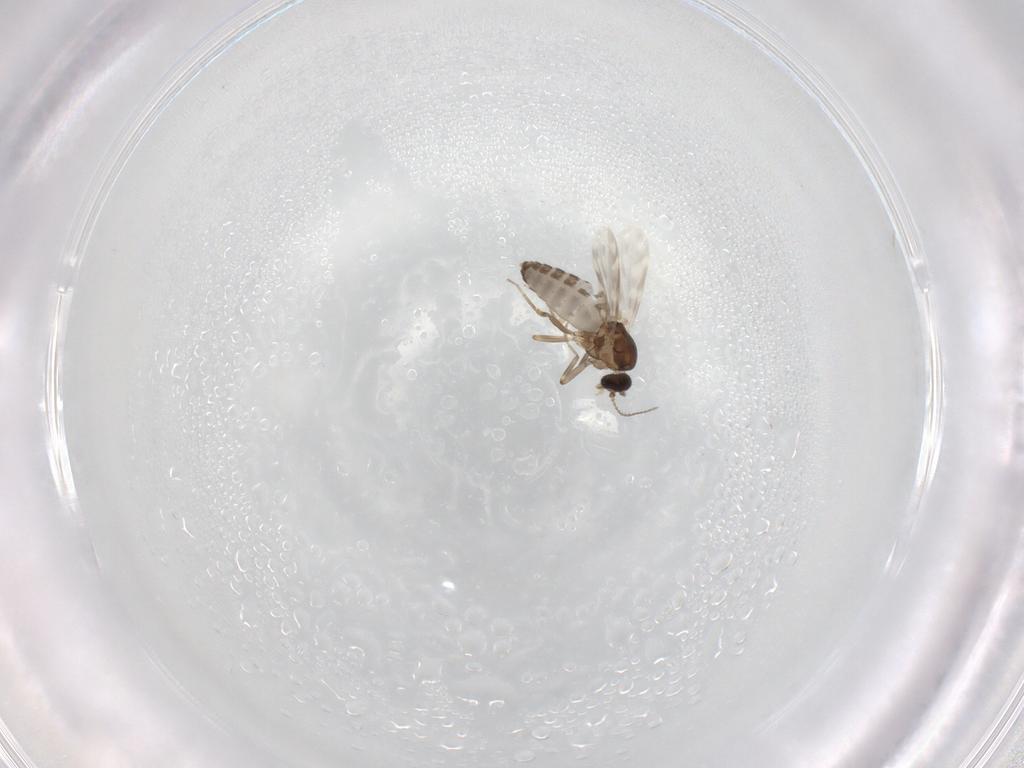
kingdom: Animalia
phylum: Arthropoda
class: Insecta
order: Diptera
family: Ceratopogonidae
